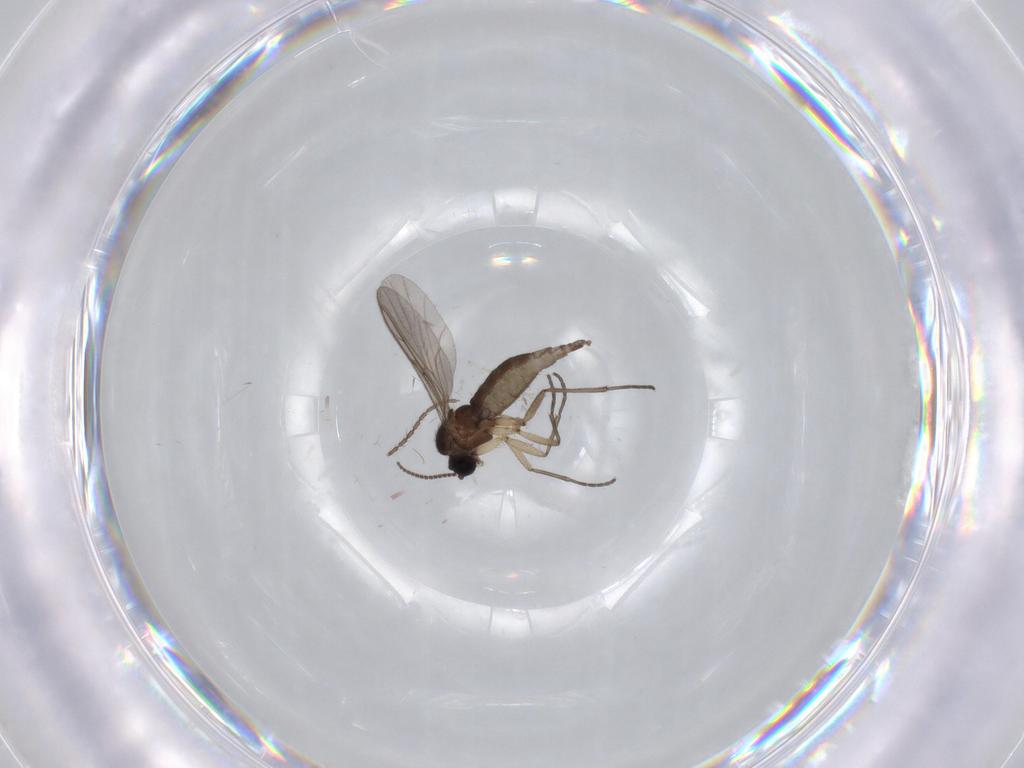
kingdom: Animalia
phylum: Arthropoda
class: Insecta
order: Diptera
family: Sciaridae
